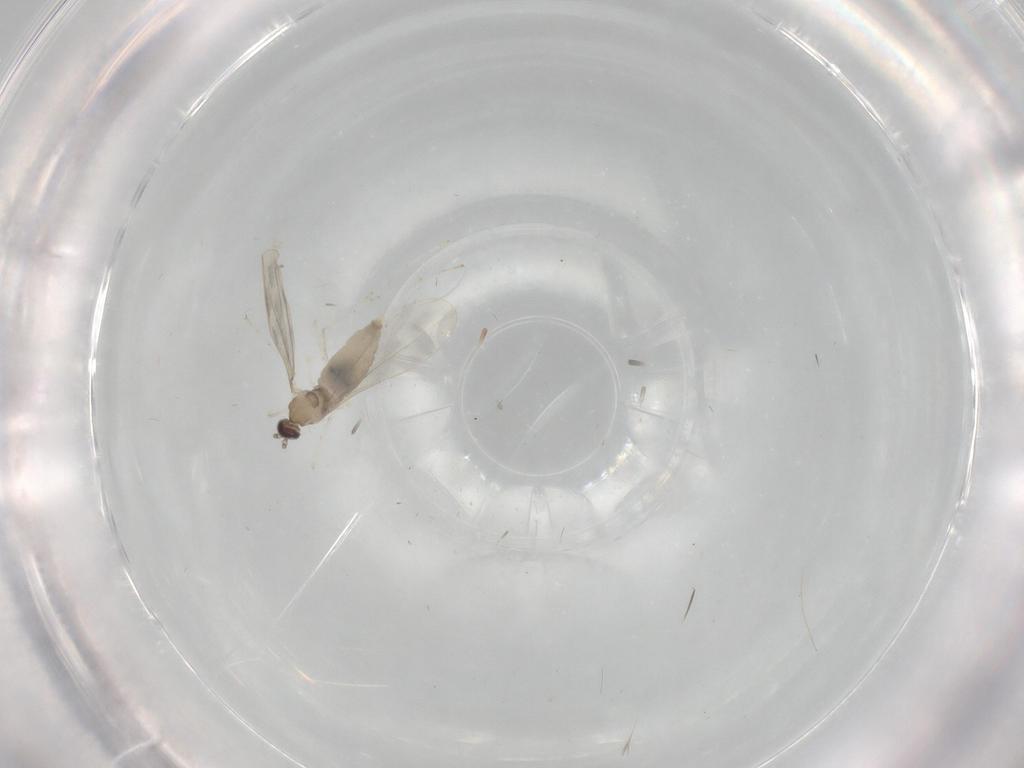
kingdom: Animalia
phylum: Arthropoda
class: Insecta
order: Diptera
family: Cecidomyiidae
